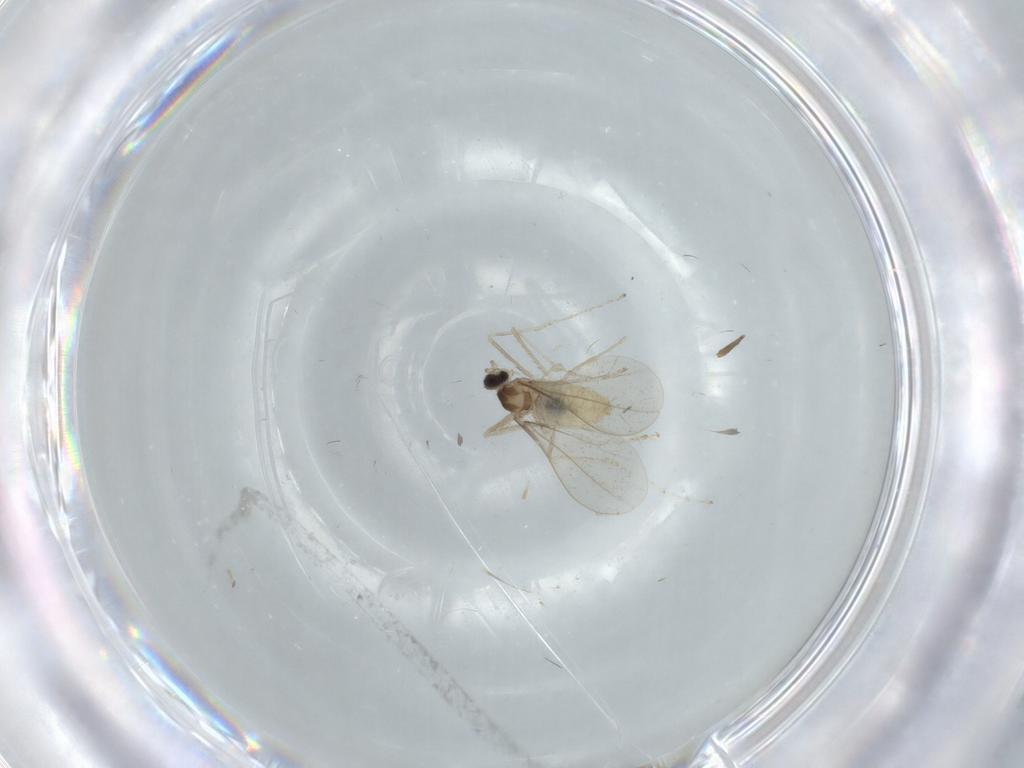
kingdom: Animalia
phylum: Arthropoda
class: Insecta
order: Diptera
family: Cecidomyiidae
